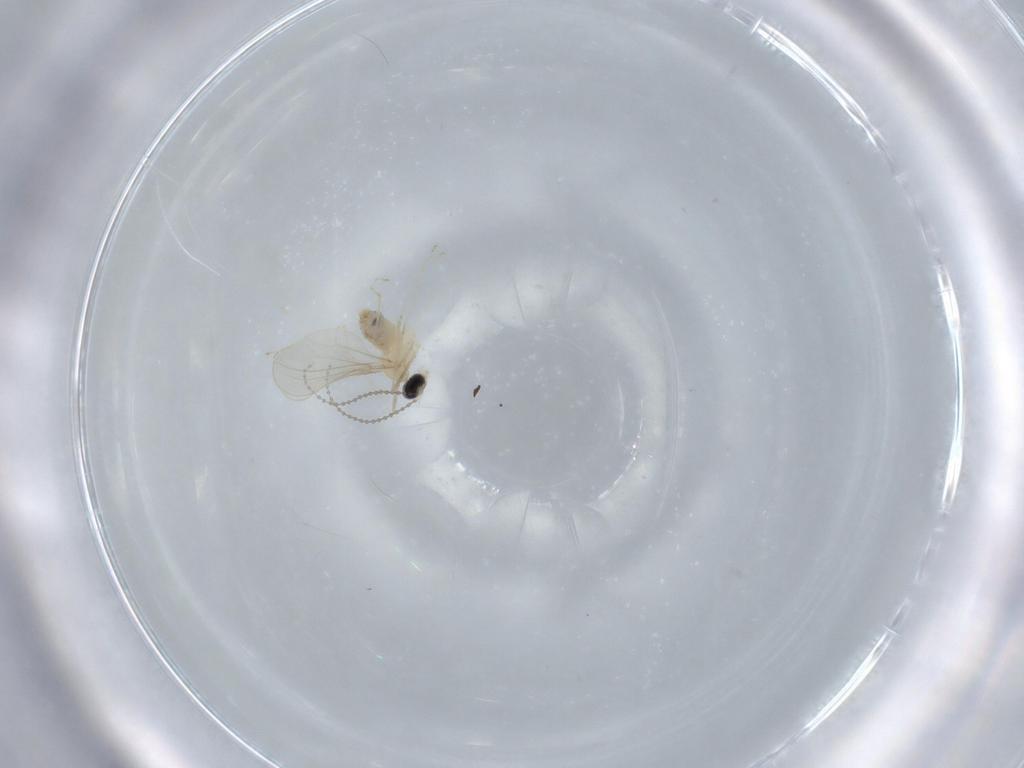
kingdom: Animalia
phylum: Arthropoda
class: Insecta
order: Diptera
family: Cecidomyiidae
